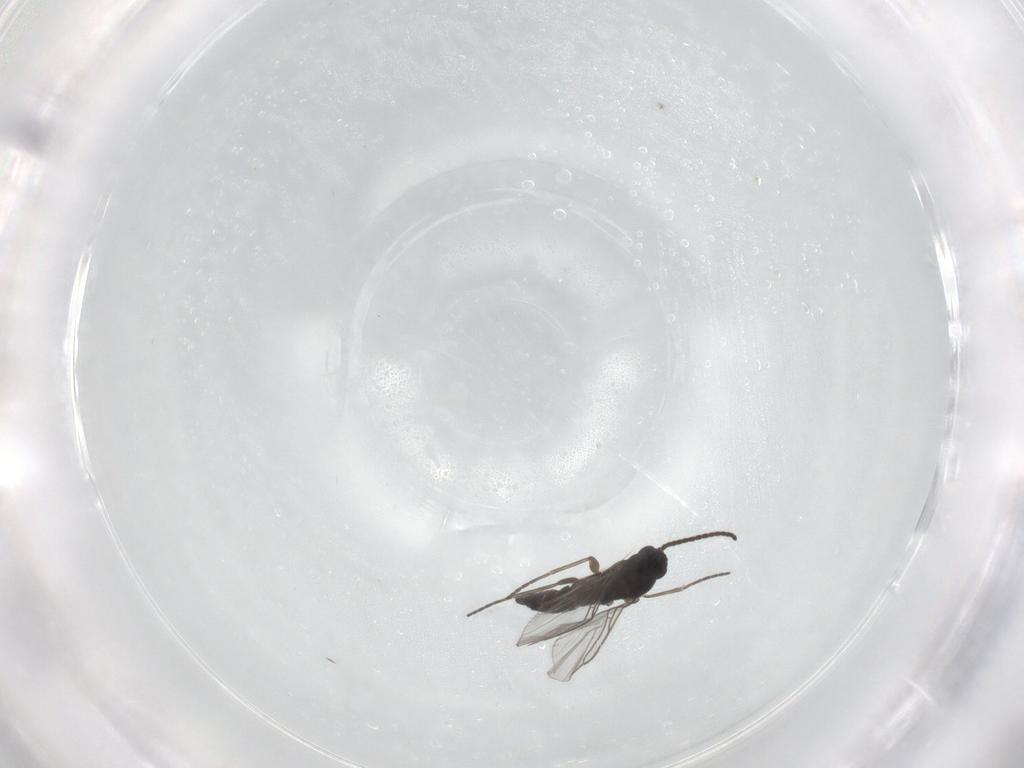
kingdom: Animalia
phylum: Arthropoda
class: Insecta
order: Diptera
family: Sciaridae
